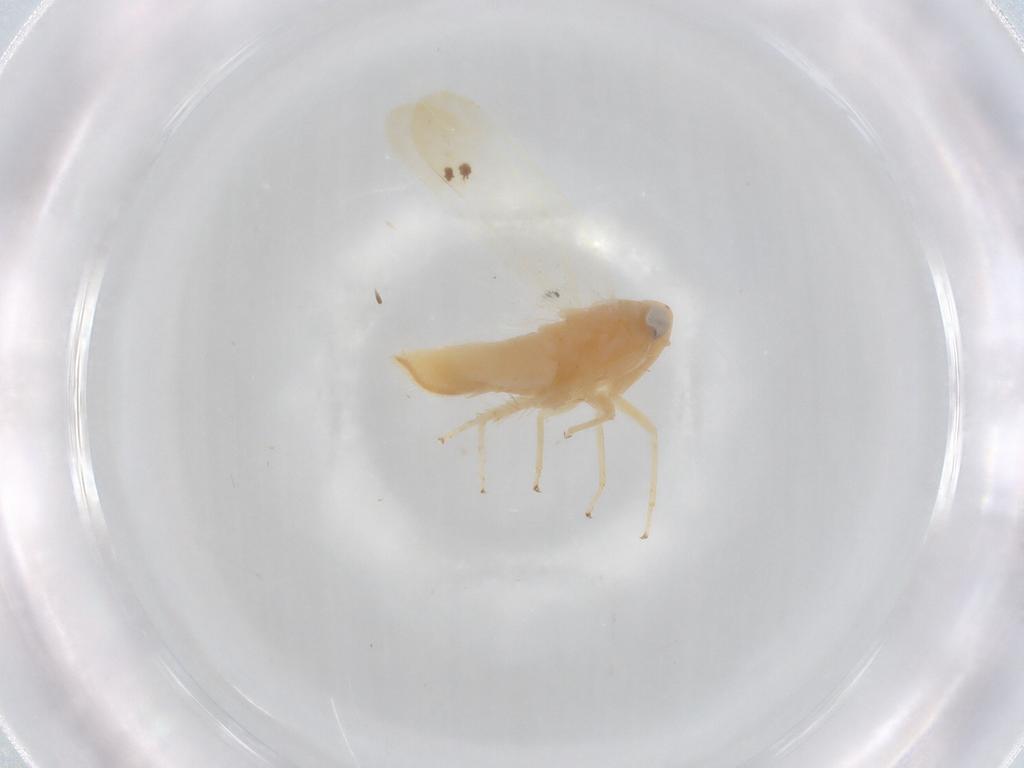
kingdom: Animalia
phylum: Arthropoda
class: Insecta
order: Hemiptera
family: Cicadellidae
